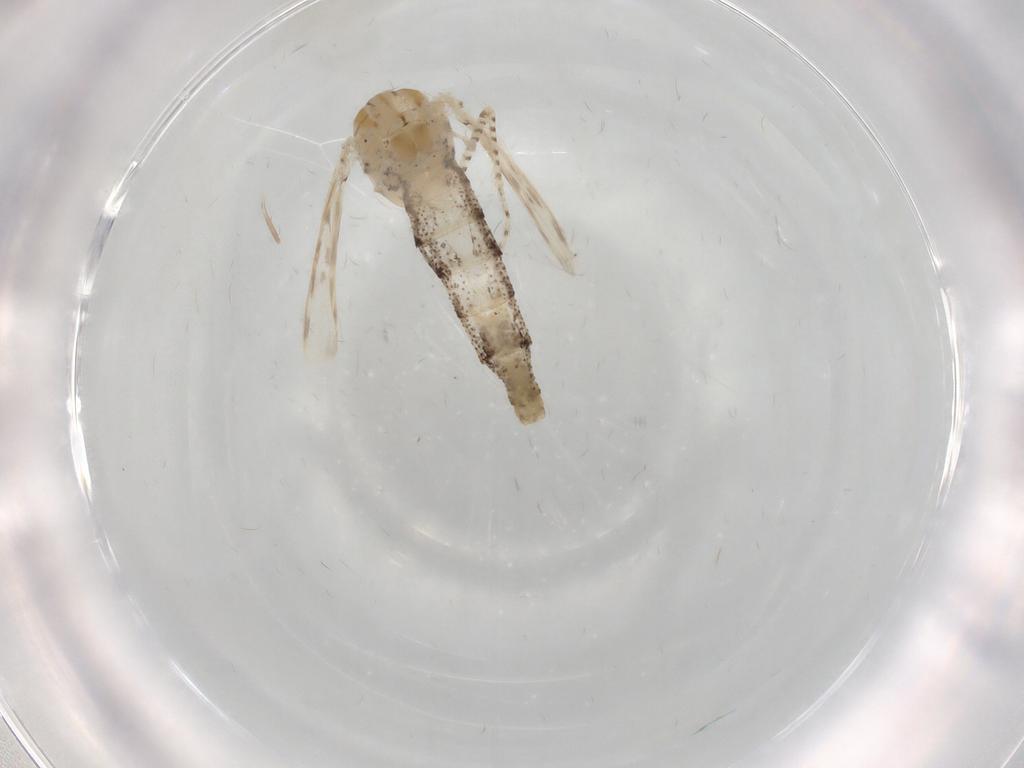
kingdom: Animalia
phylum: Arthropoda
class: Insecta
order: Diptera
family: Chaoboridae
